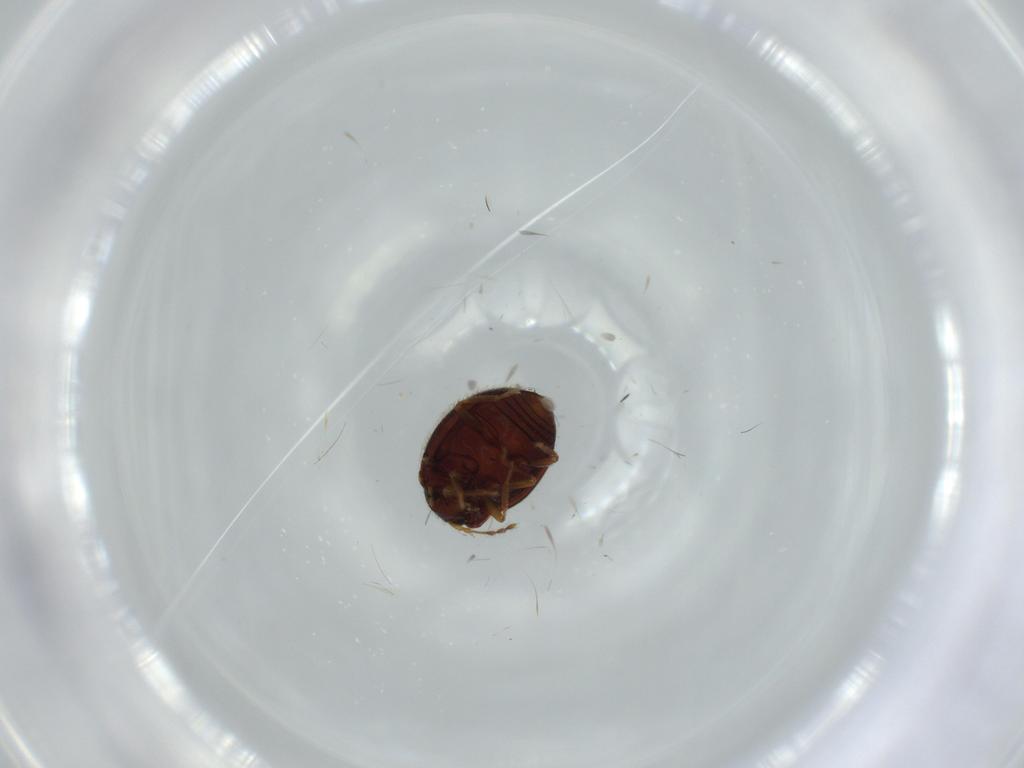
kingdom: Animalia
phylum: Arthropoda
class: Insecta
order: Coleoptera
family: Anamorphidae
